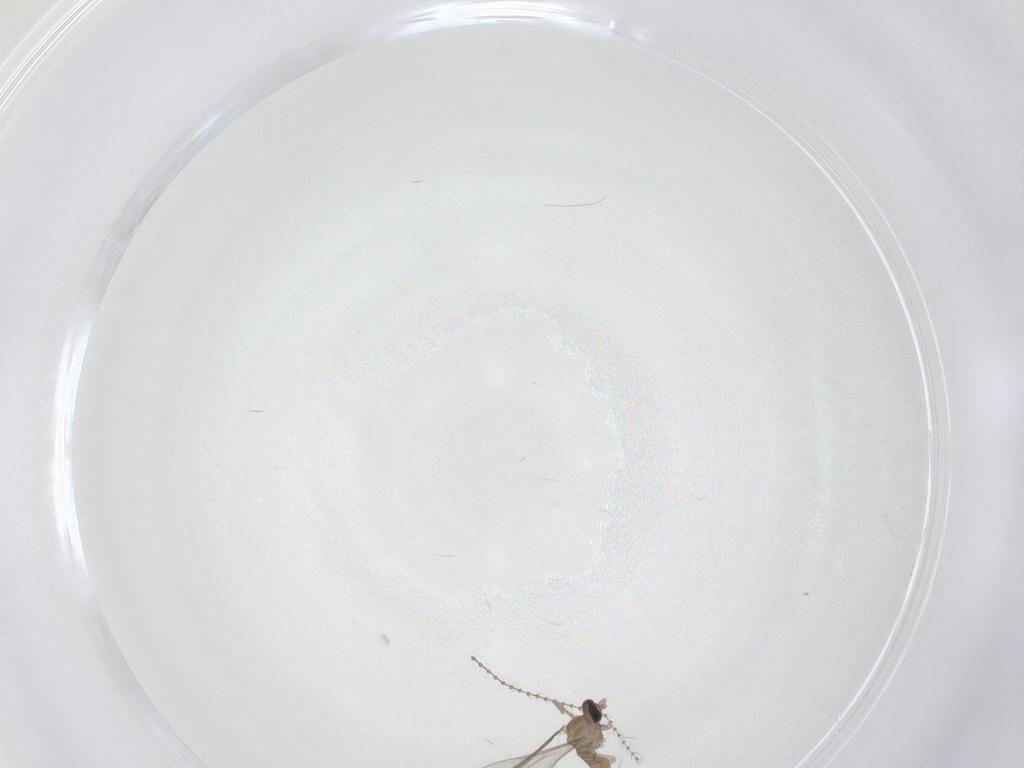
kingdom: Animalia
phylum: Arthropoda
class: Insecta
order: Diptera
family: Cecidomyiidae
